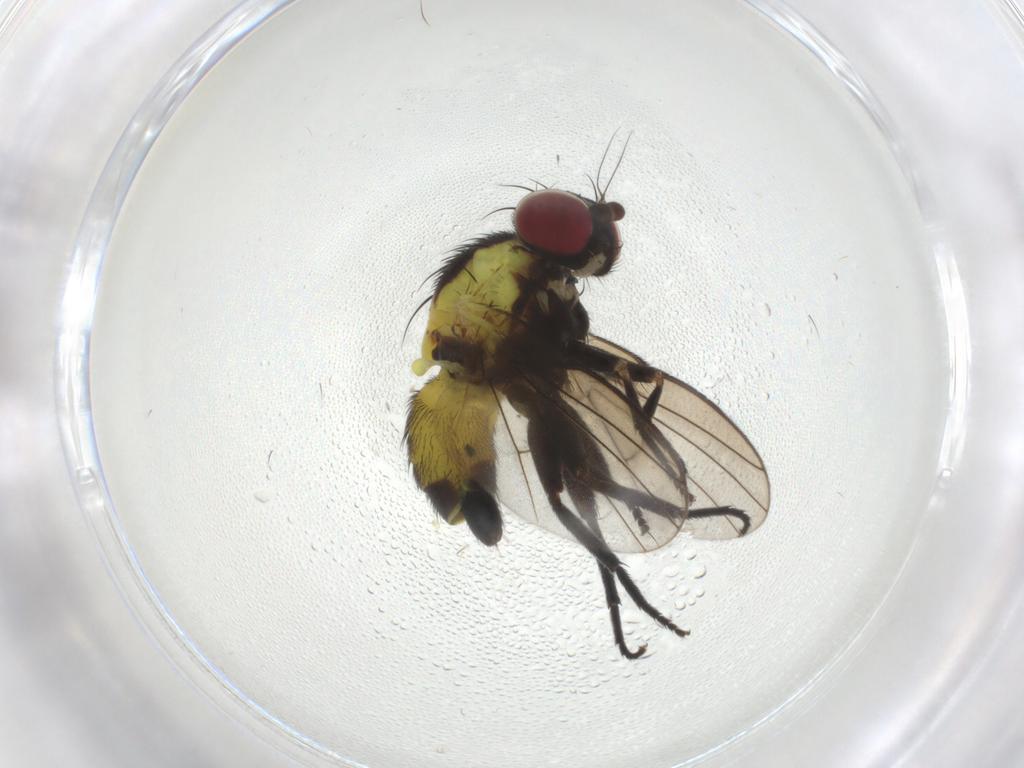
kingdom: Animalia
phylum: Arthropoda
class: Insecta
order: Diptera
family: Agromyzidae
